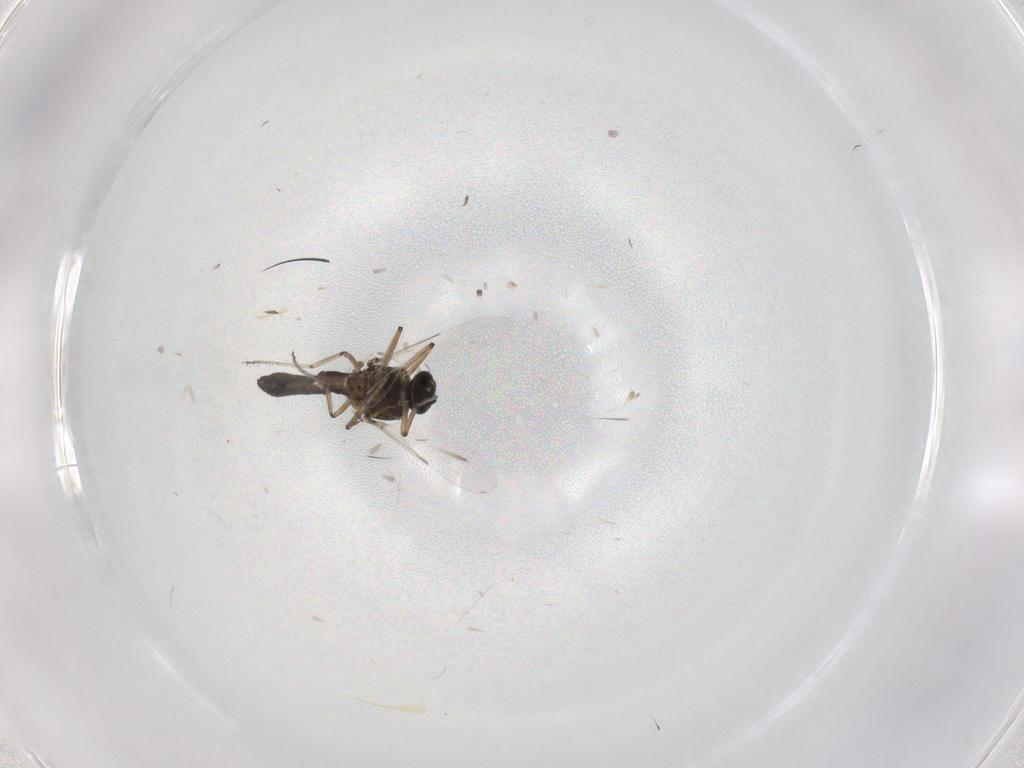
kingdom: Animalia
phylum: Arthropoda
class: Insecta
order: Diptera
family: Ceratopogonidae
